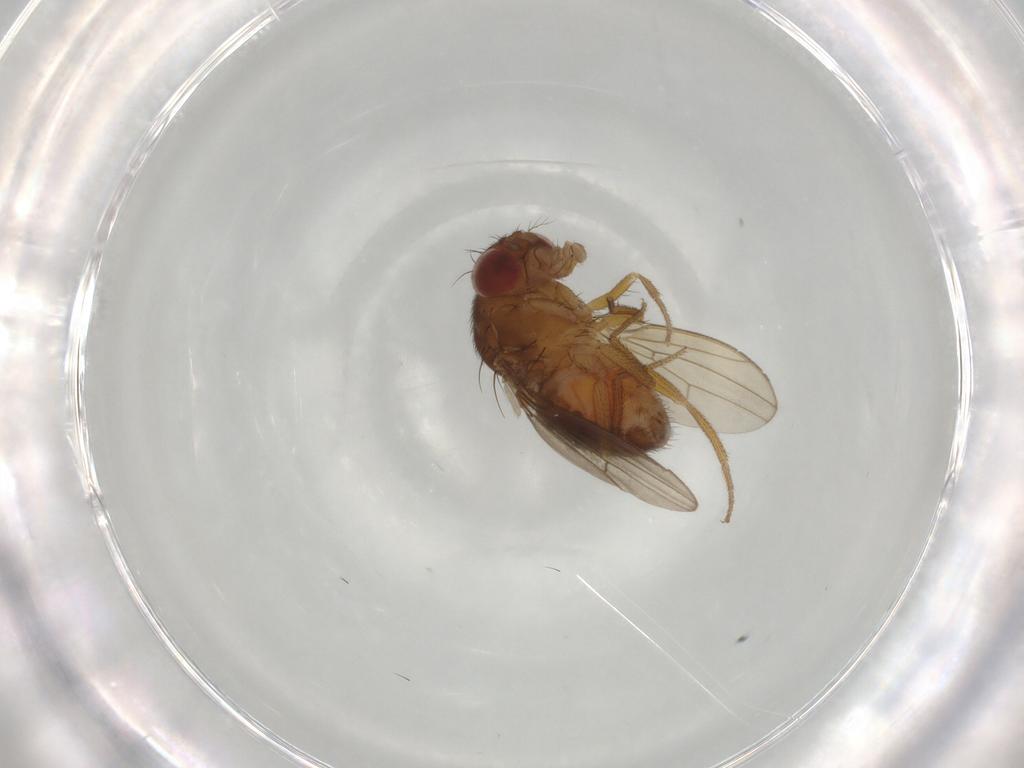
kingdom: Animalia
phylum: Arthropoda
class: Insecta
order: Diptera
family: Drosophilidae
